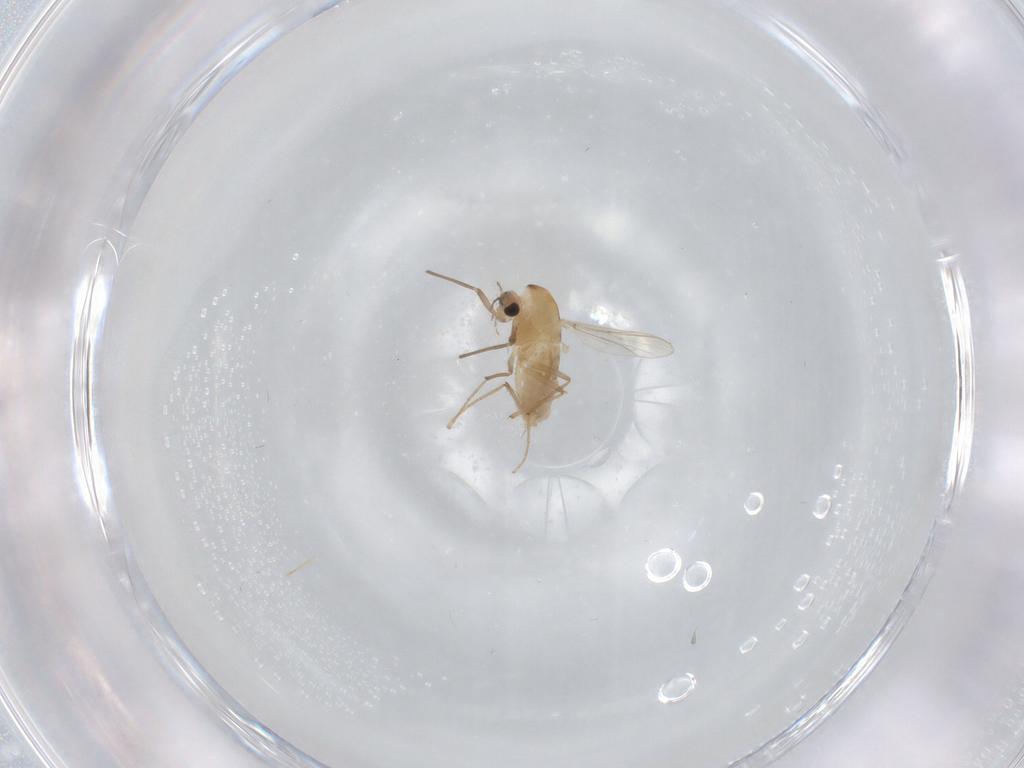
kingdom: Animalia
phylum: Arthropoda
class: Insecta
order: Diptera
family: Chironomidae
